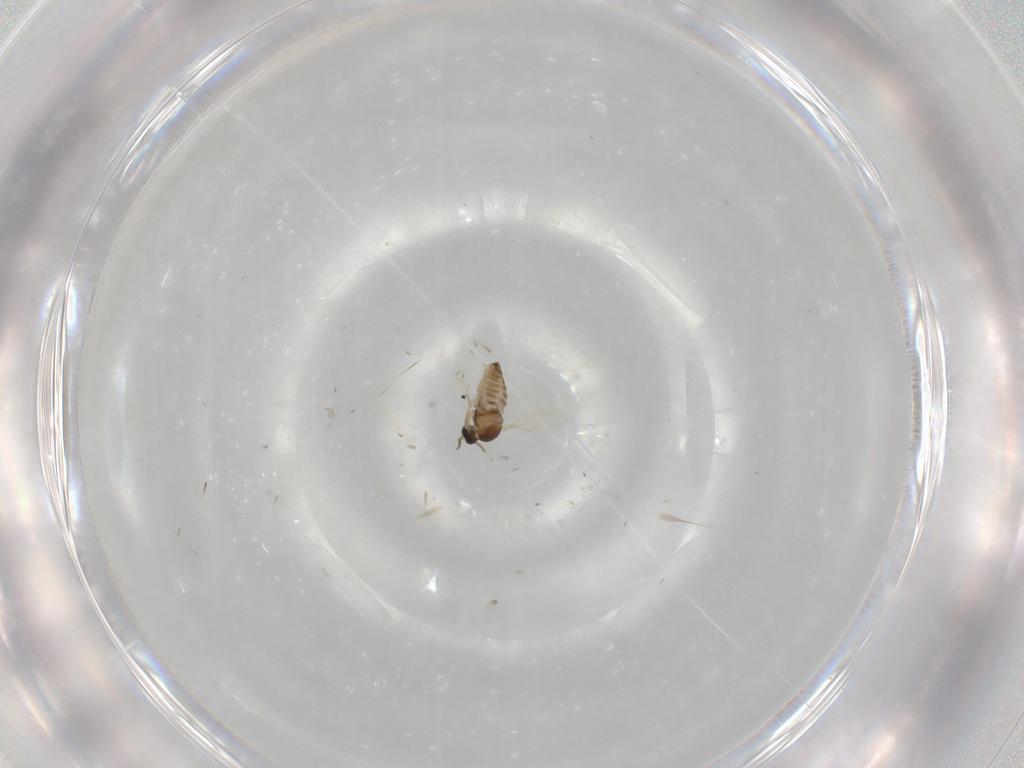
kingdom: Animalia
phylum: Arthropoda
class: Insecta
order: Diptera
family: Cecidomyiidae
